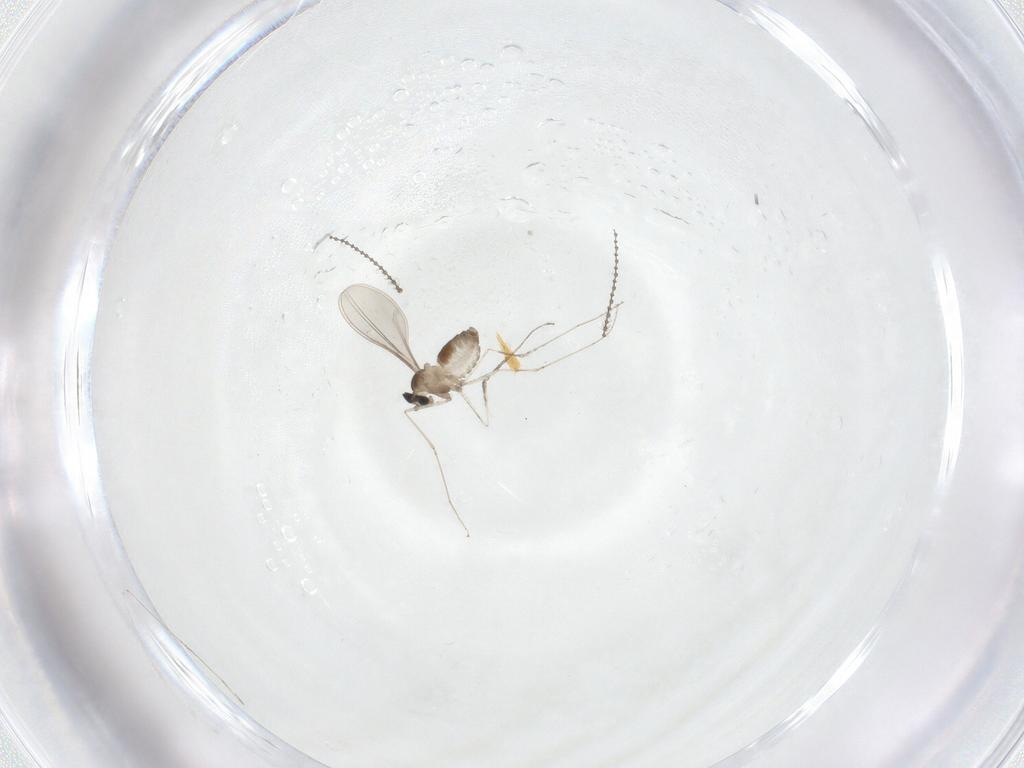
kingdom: Animalia
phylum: Arthropoda
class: Insecta
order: Diptera
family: Cecidomyiidae
